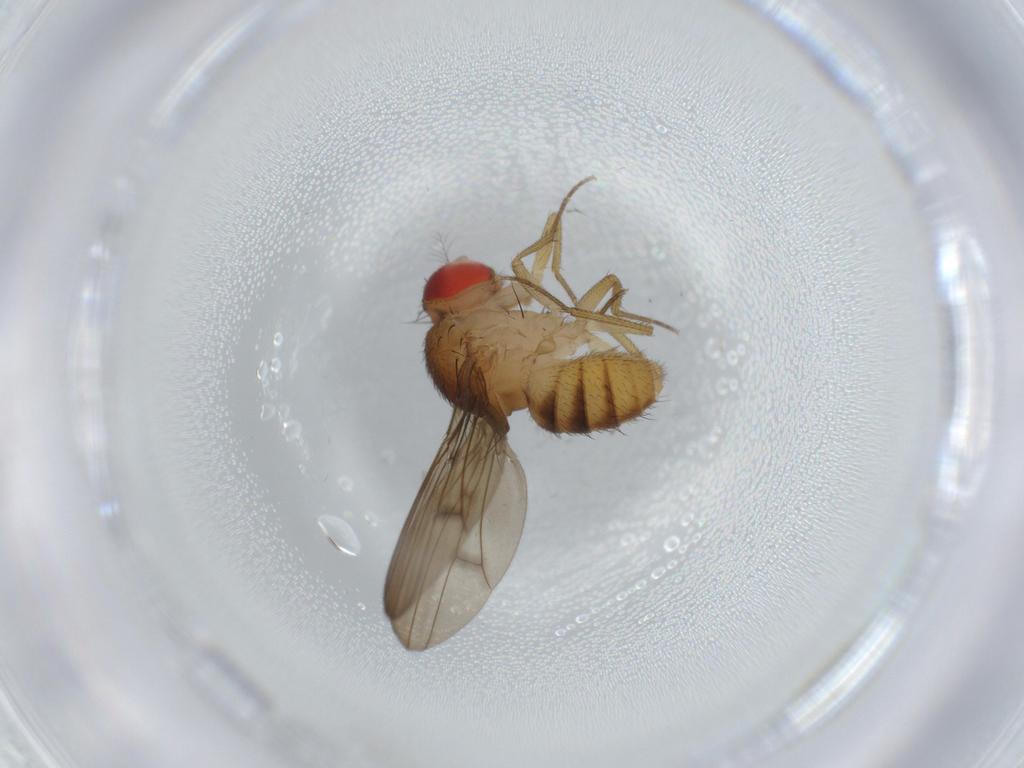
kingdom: Animalia
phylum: Arthropoda
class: Insecta
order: Diptera
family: Drosophilidae
